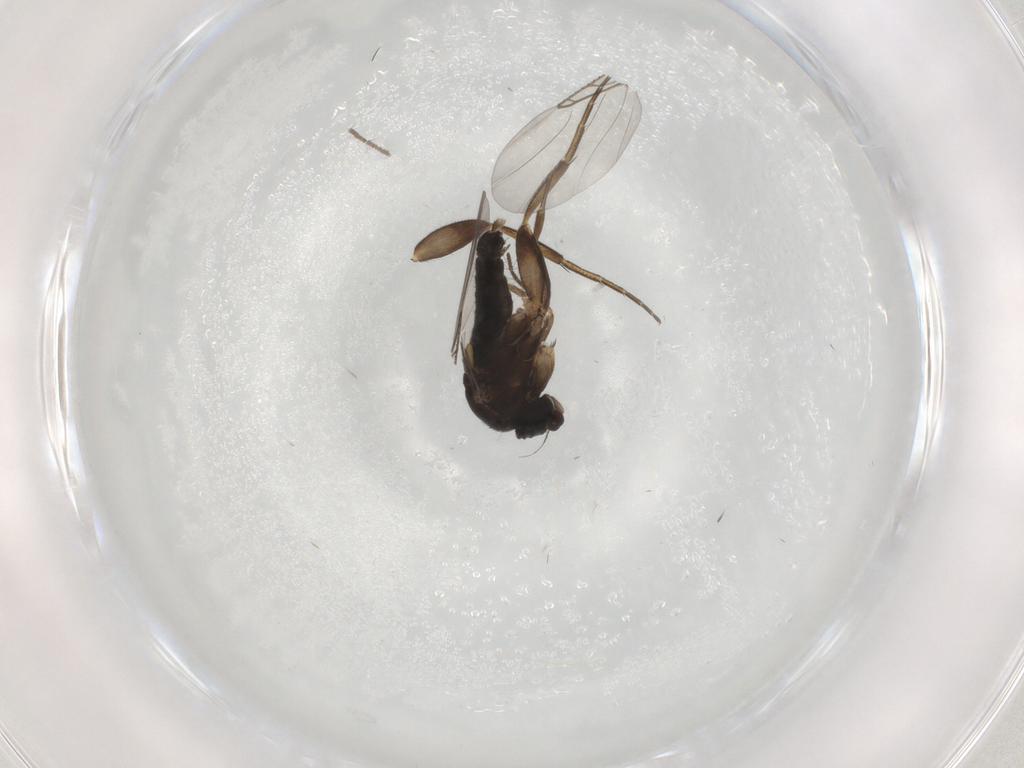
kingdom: Animalia
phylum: Arthropoda
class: Insecta
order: Diptera
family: Phoridae
